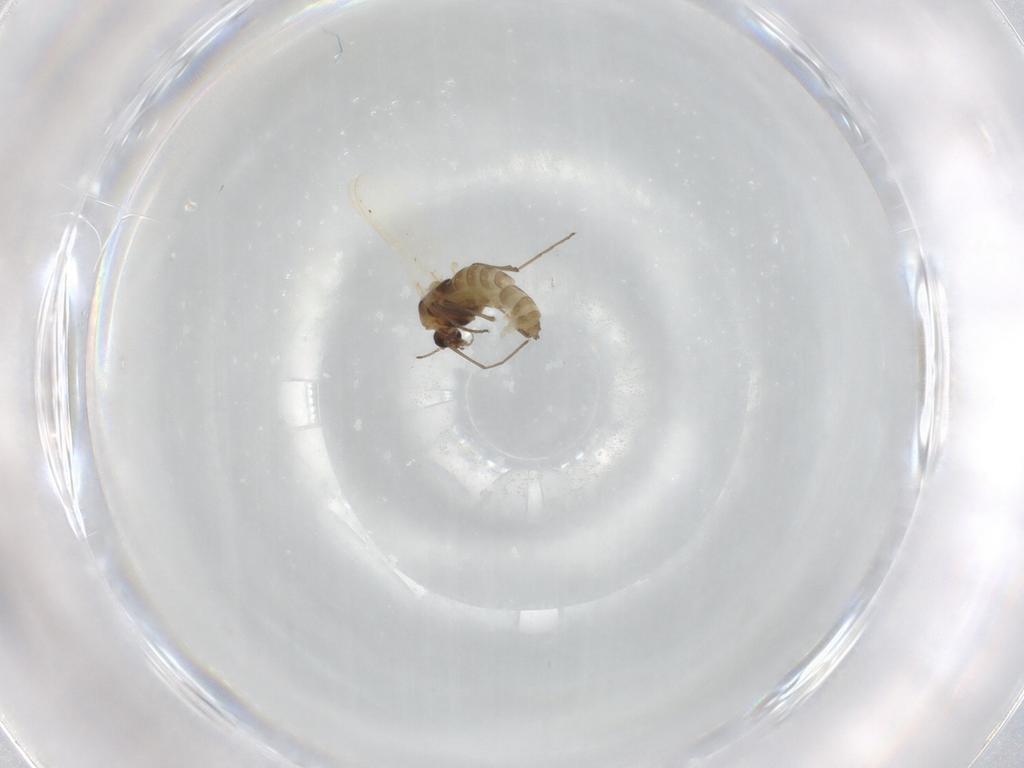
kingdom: Animalia
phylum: Arthropoda
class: Insecta
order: Diptera
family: Chironomidae
